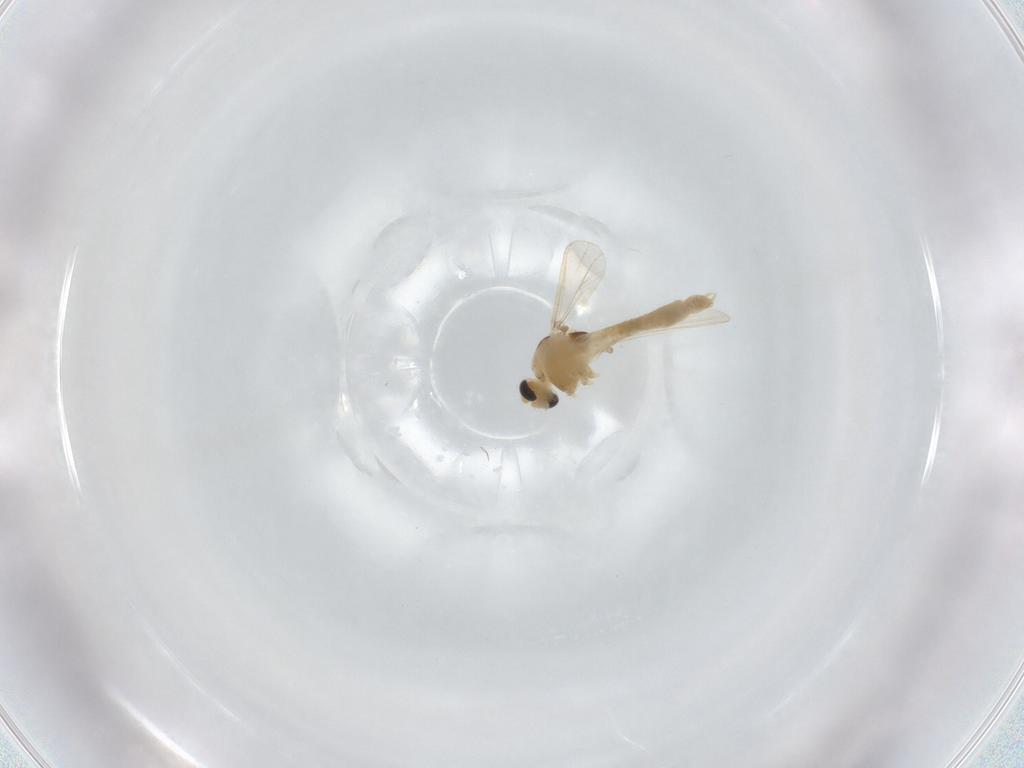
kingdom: Animalia
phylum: Arthropoda
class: Insecta
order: Diptera
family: Chironomidae
